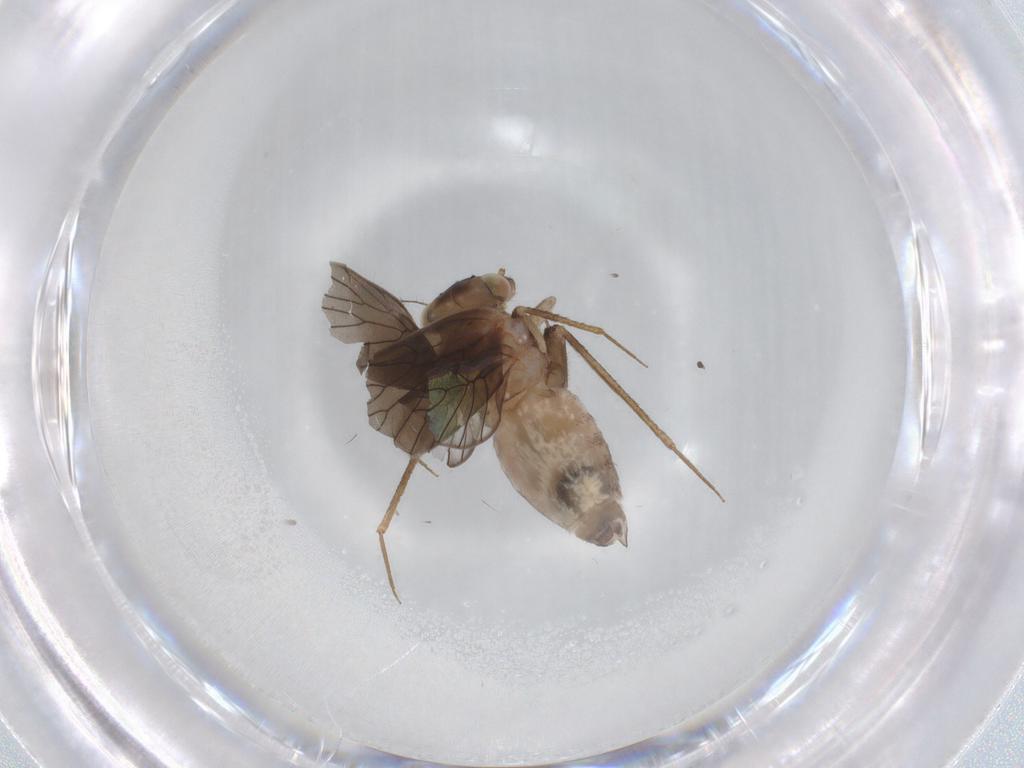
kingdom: Animalia
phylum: Arthropoda
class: Insecta
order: Psocodea
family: Lepidopsocidae
